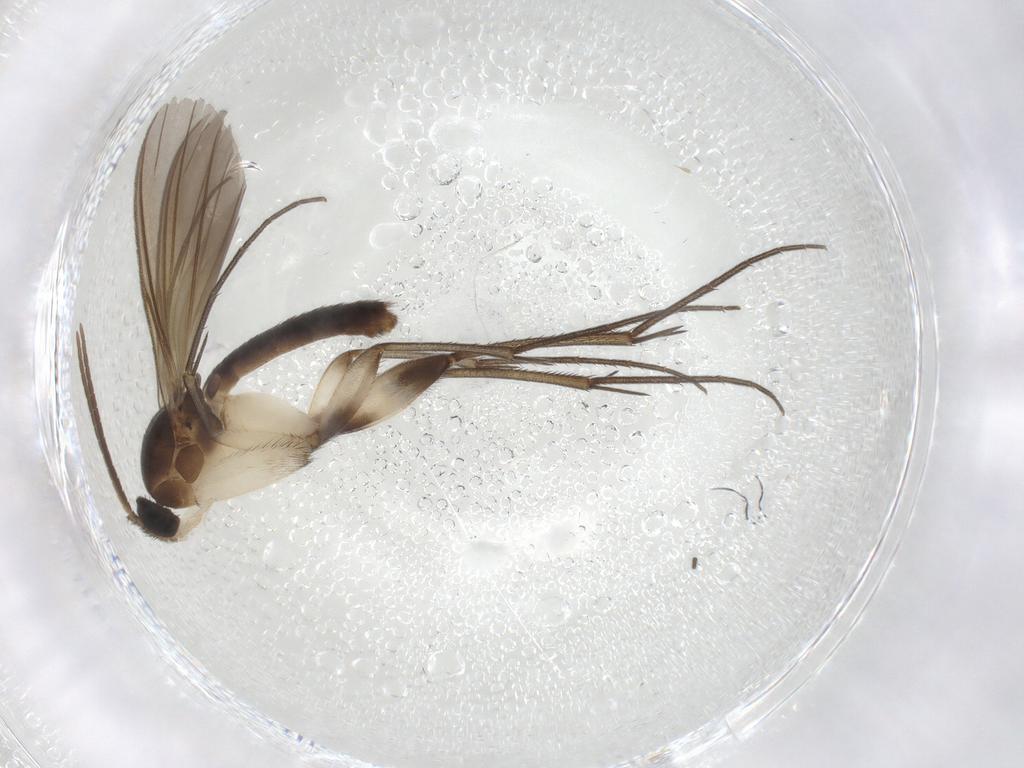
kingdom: Animalia
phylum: Arthropoda
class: Insecta
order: Diptera
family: Mycetophilidae
